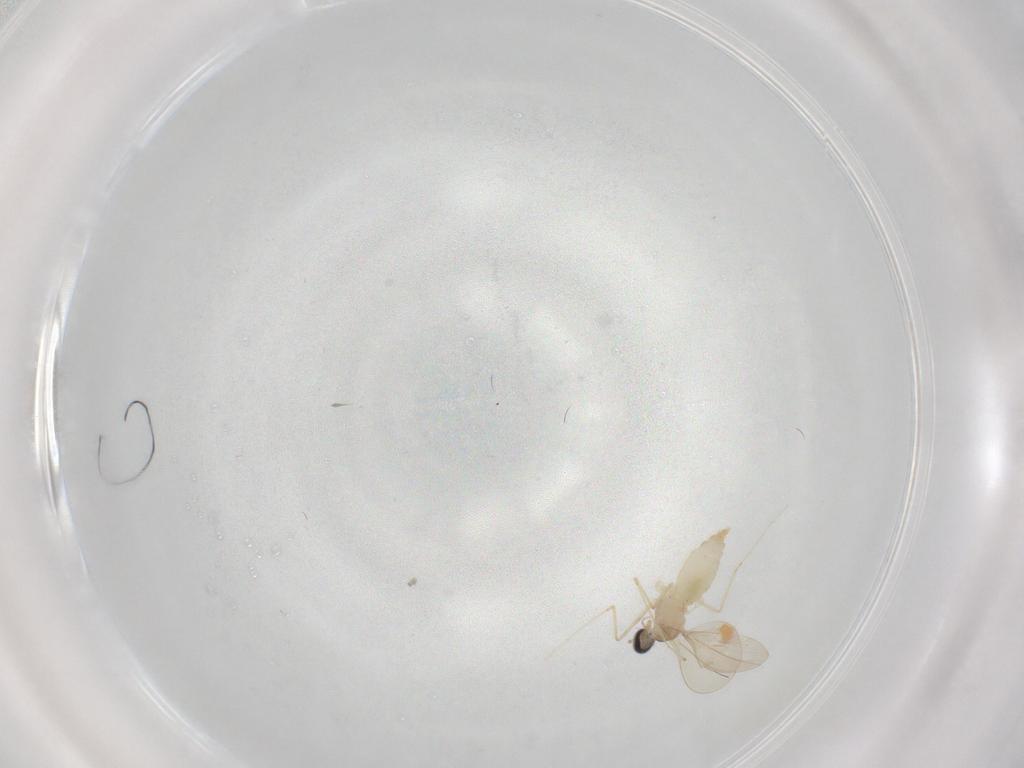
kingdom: Animalia
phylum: Arthropoda
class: Insecta
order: Diptera
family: Cecidomyiidae
